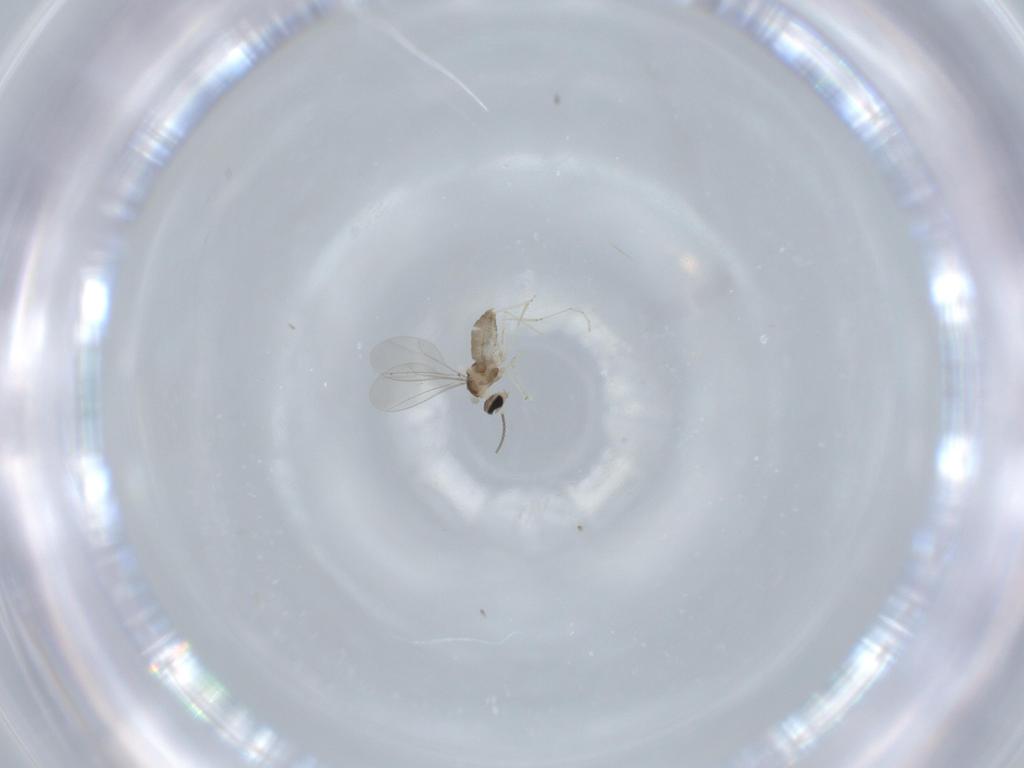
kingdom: Animalia
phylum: Arthropoda
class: Insecta
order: Diptera
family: Cecidomyiidae
